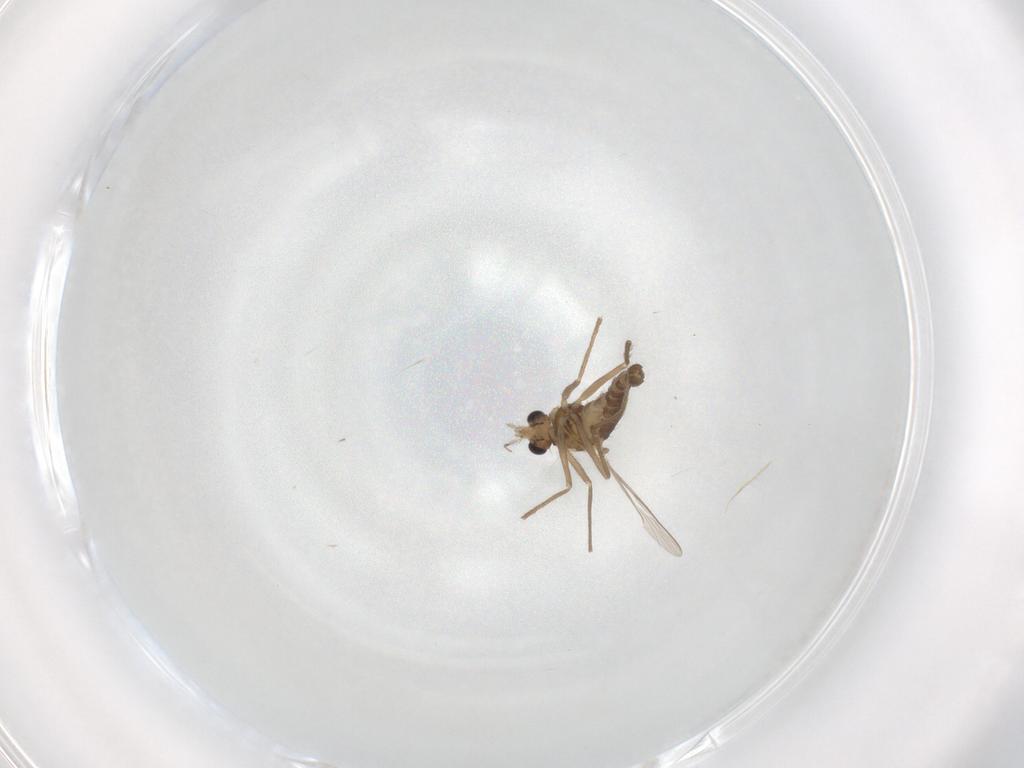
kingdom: Animalia
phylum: Arthropoda
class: Insecta
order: Diptera
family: Chironomidae
